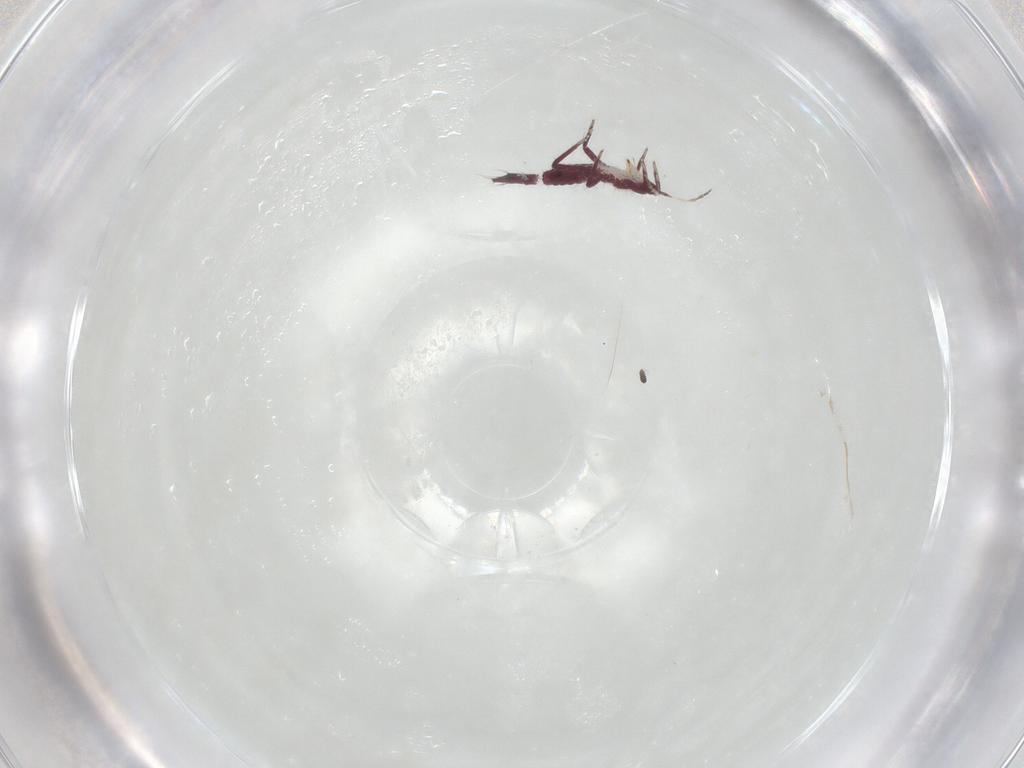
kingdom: Animalia
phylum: Arthropoda
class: Insecta
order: Thysanoptera
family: Phlaeothripidae
